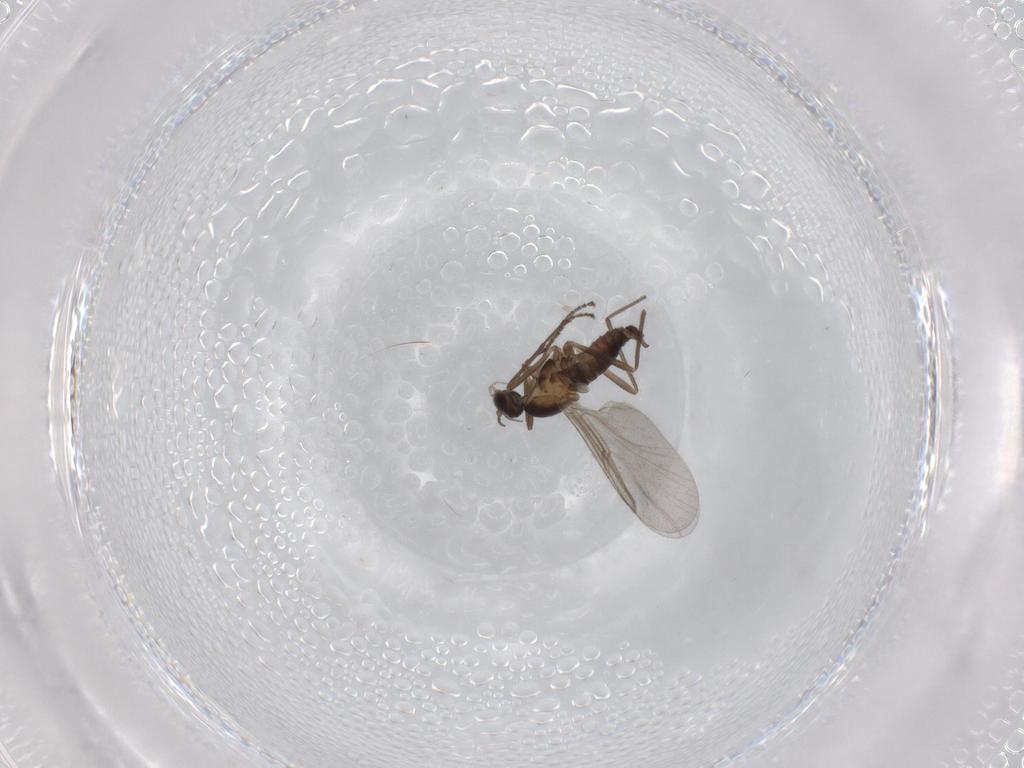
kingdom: Animalia
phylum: Arthropoda
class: Insecta
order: Diptera
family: Cecidomyiidae
